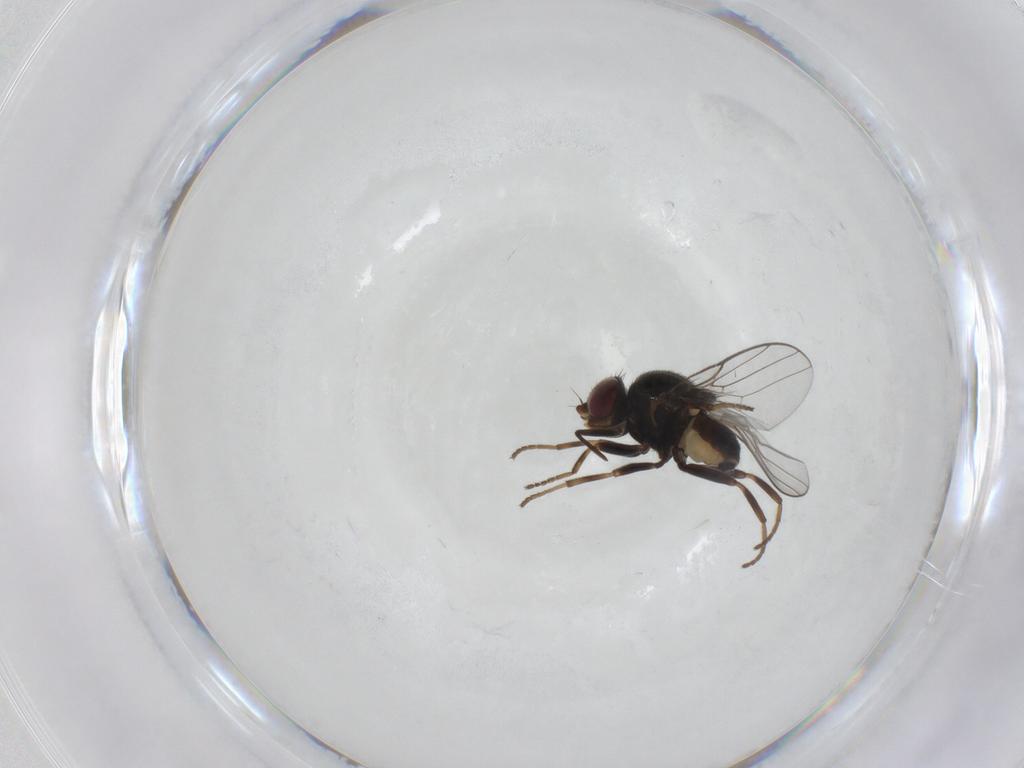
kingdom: Animalia
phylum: Arthropoda
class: Insecta
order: Diptera
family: Chloropidae
